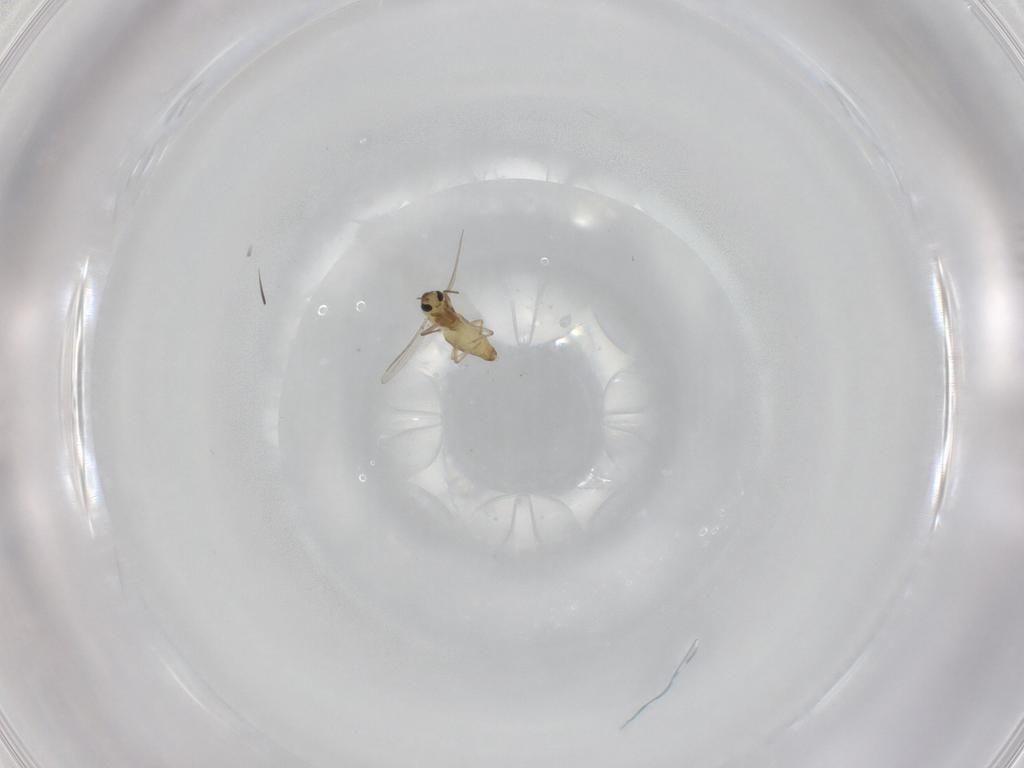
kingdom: Animalia
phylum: Arthropoda
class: Insecta
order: Diptera
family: Chironomidae
